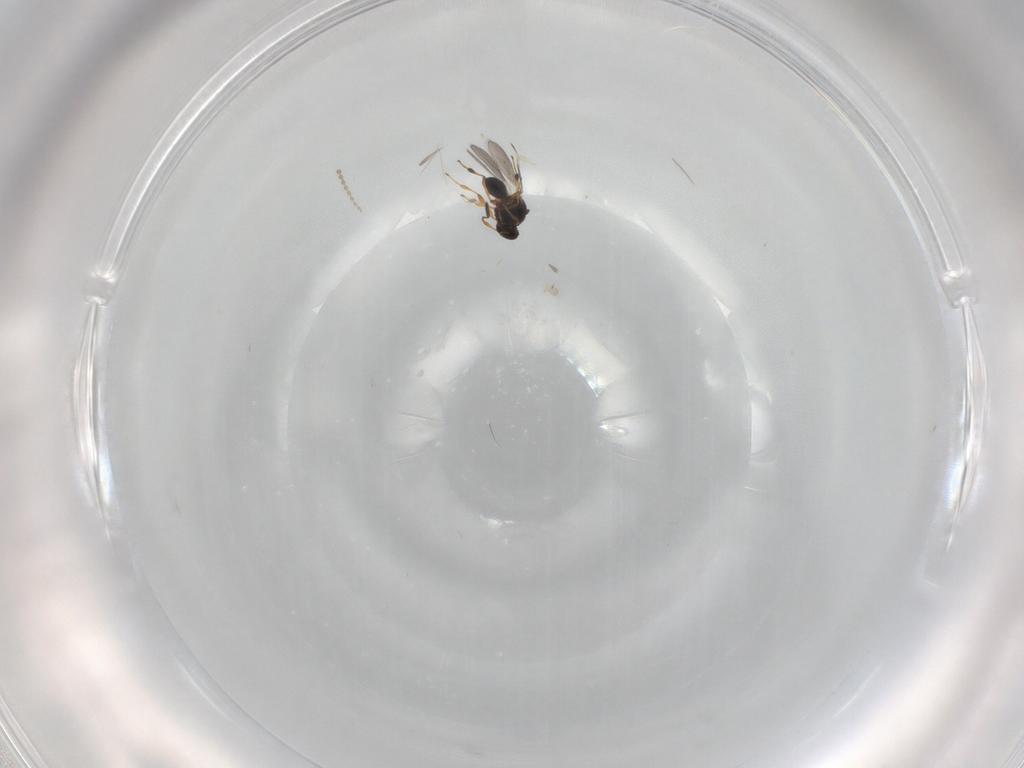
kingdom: Animalia
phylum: Arthropoda
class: Insecta
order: Hymenoptera
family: Platygastridae
